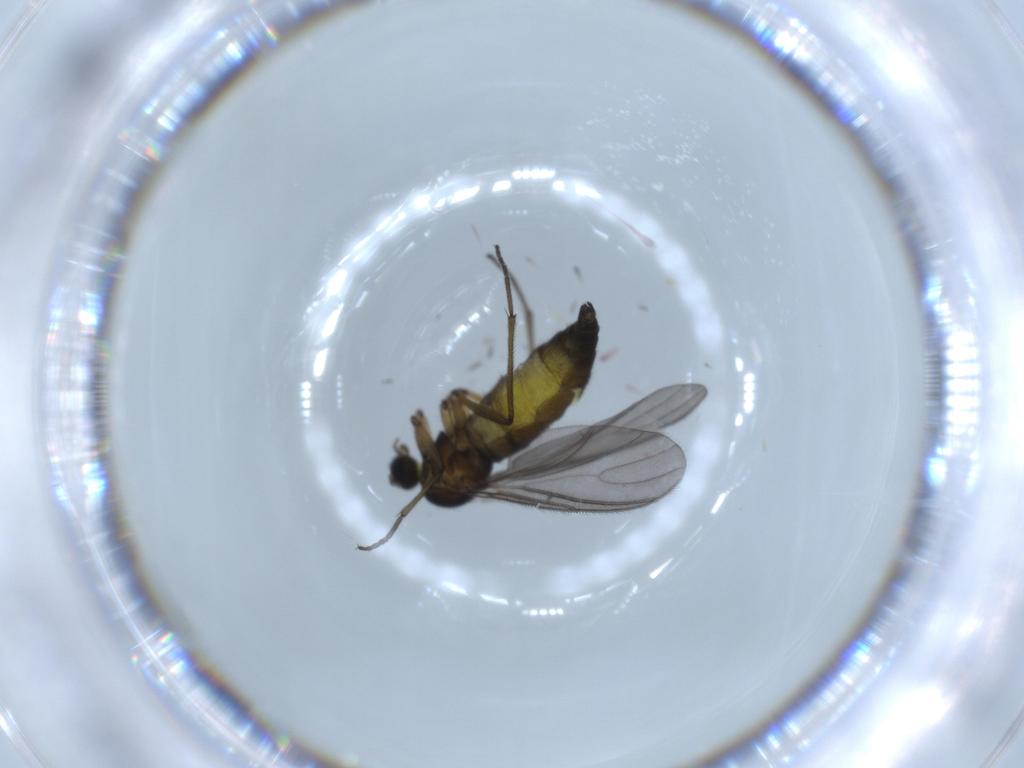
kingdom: Animalia
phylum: Arthropoda
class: Insecta
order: Diptera
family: Sciaridae
